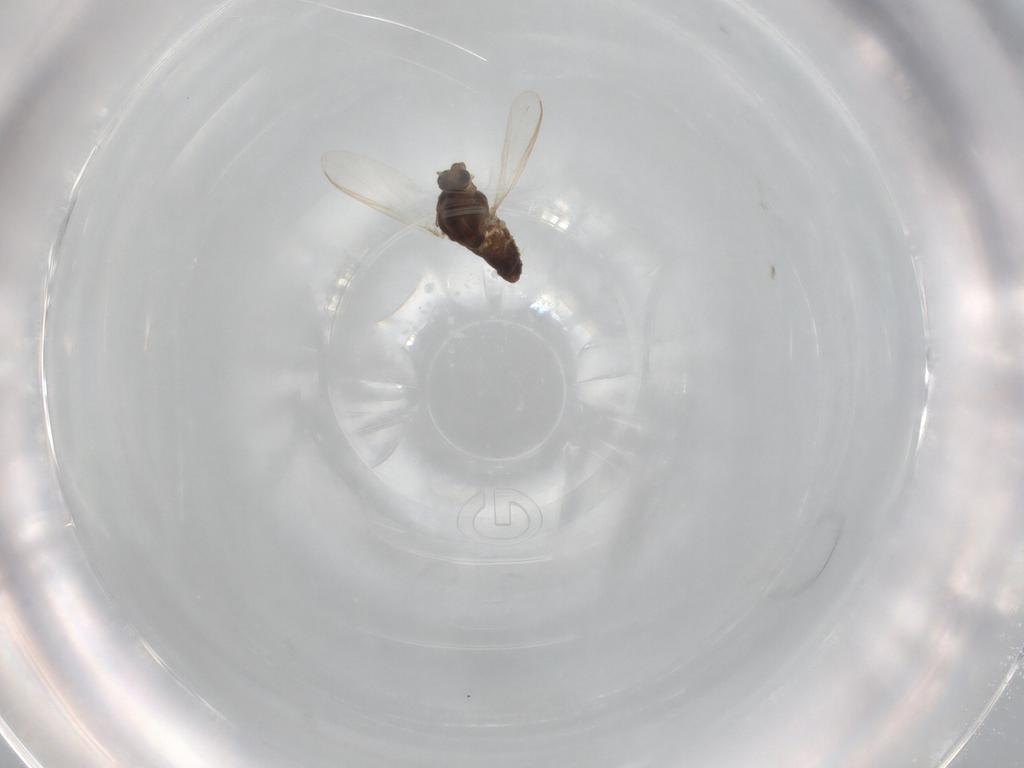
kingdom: Animalia
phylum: Arthropoda
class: Insecta
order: Diptera
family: Chironomidae
